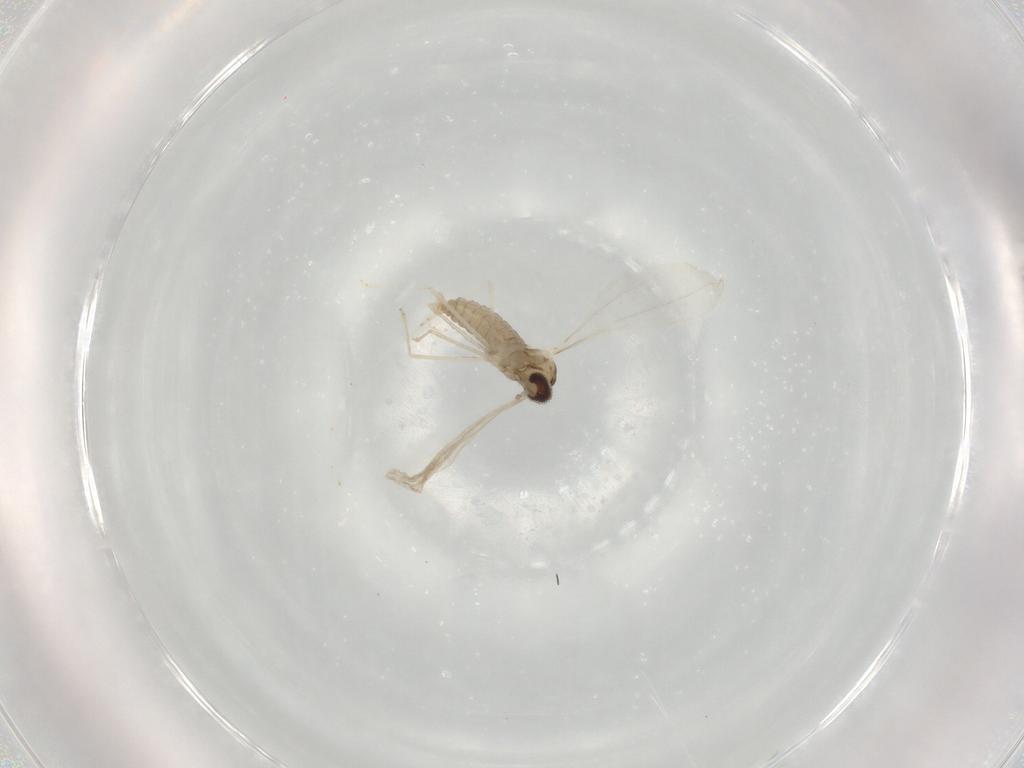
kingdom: Animalia
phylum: Arthropoda
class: Insecta
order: Diptera
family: Cecidomyiidae
